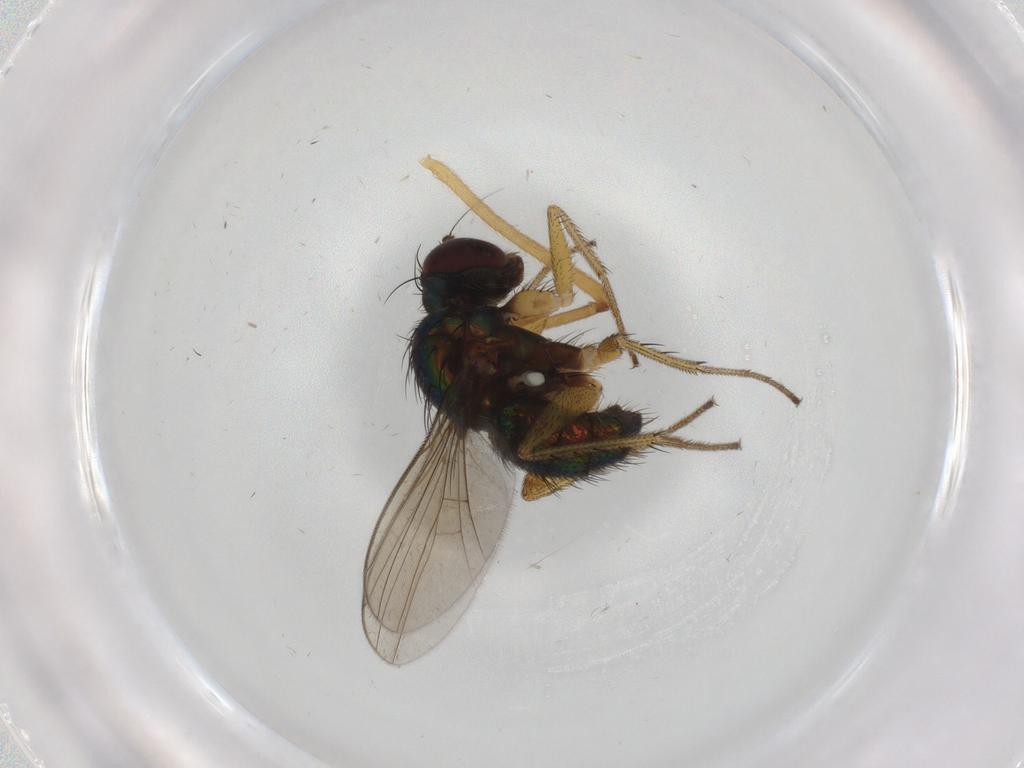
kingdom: Animalia
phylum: Arthropoda
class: Insecta
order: Diptera
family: Dolichopodidae
